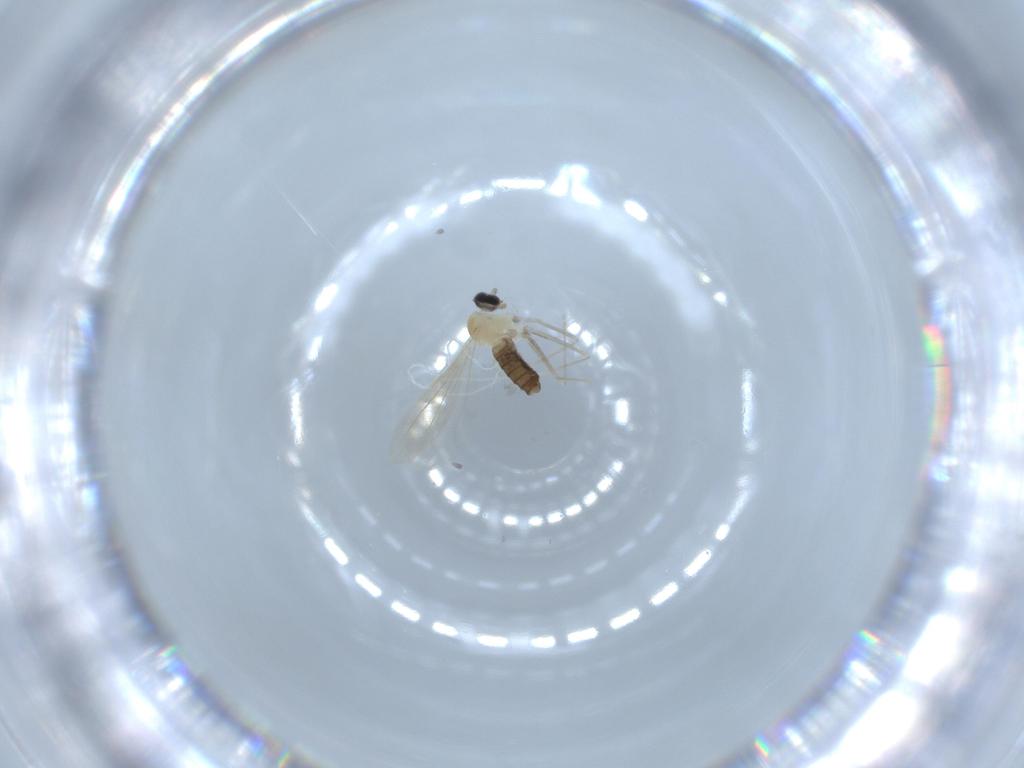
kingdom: Animalia
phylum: Arthropoda
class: Insecta
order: Diptera
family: Cecidomyiidae
